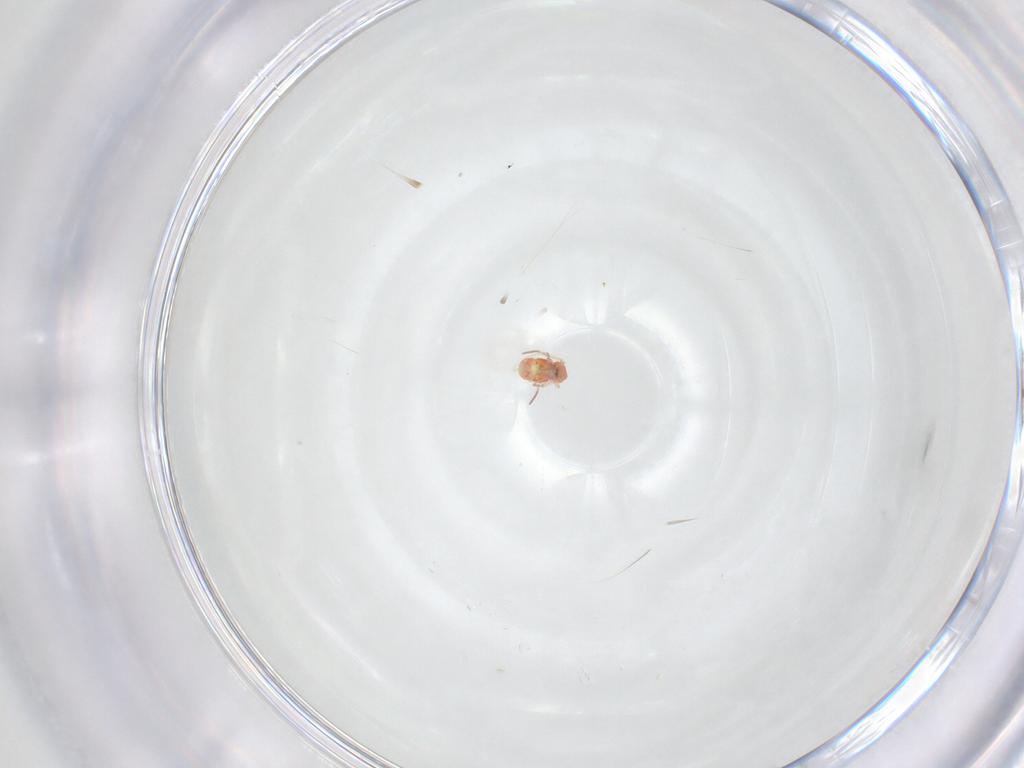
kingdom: Animalia
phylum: Arthropoda
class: Collembola
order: Symphypleona
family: Bourletiellidae
